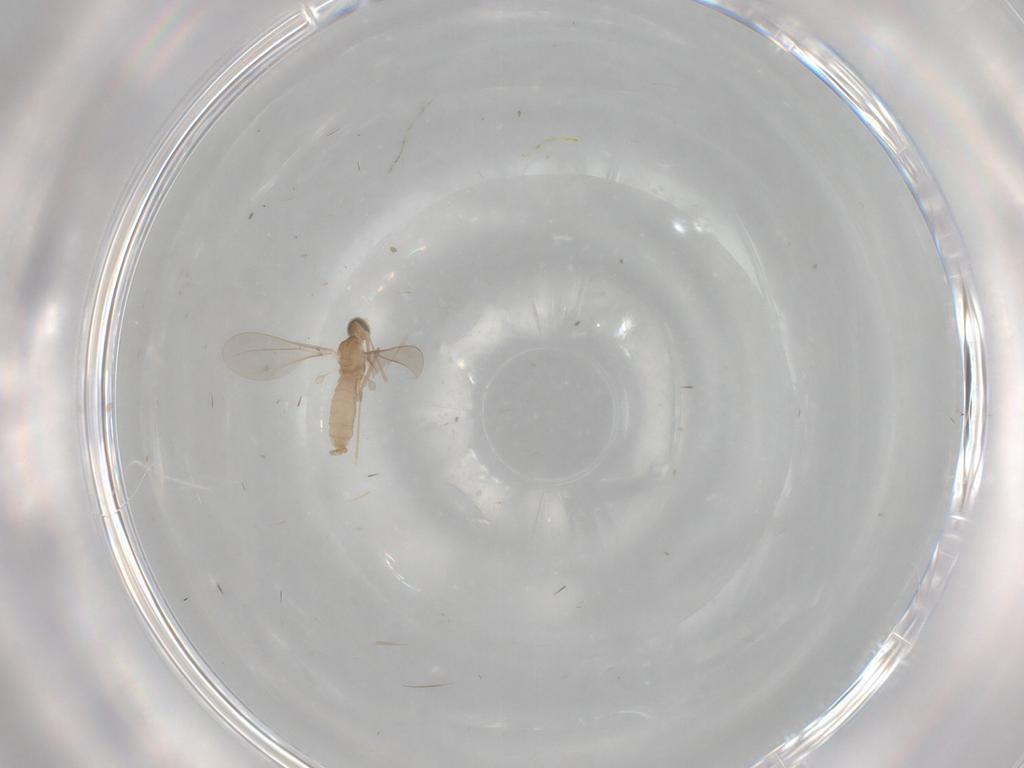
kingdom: Animalia
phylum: Arthropoda
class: Insecta
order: Diptera
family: Cecidomyiidae
